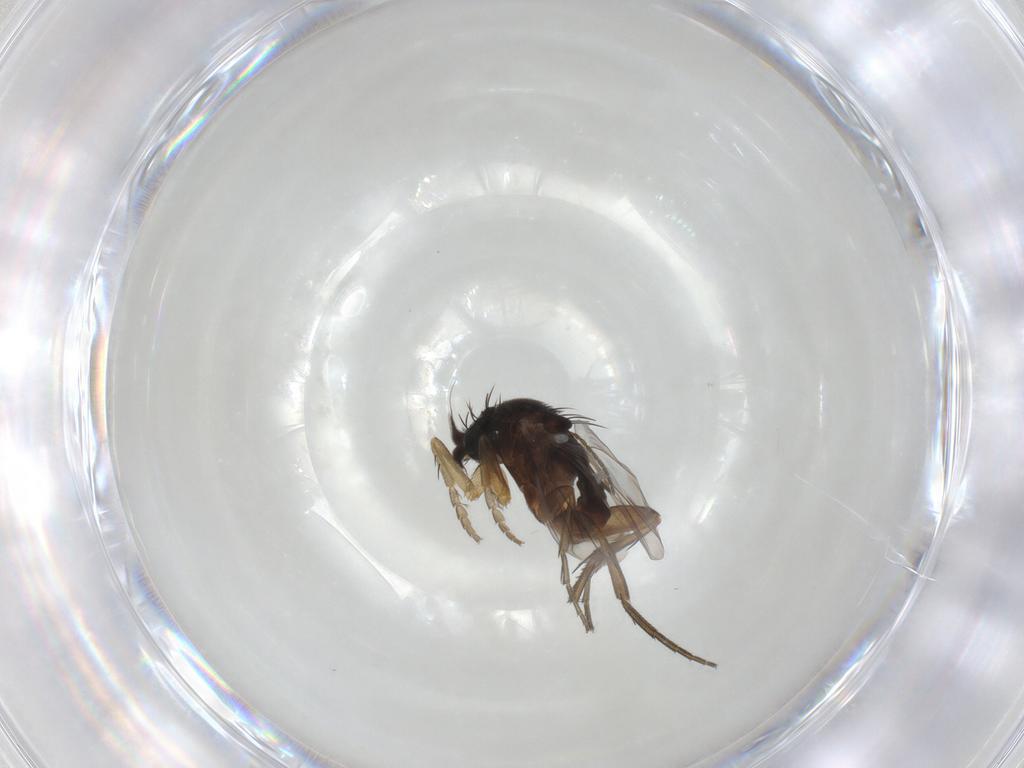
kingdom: Animalia
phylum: Arthropoda
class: Insecta
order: Diptera
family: Phoridae
